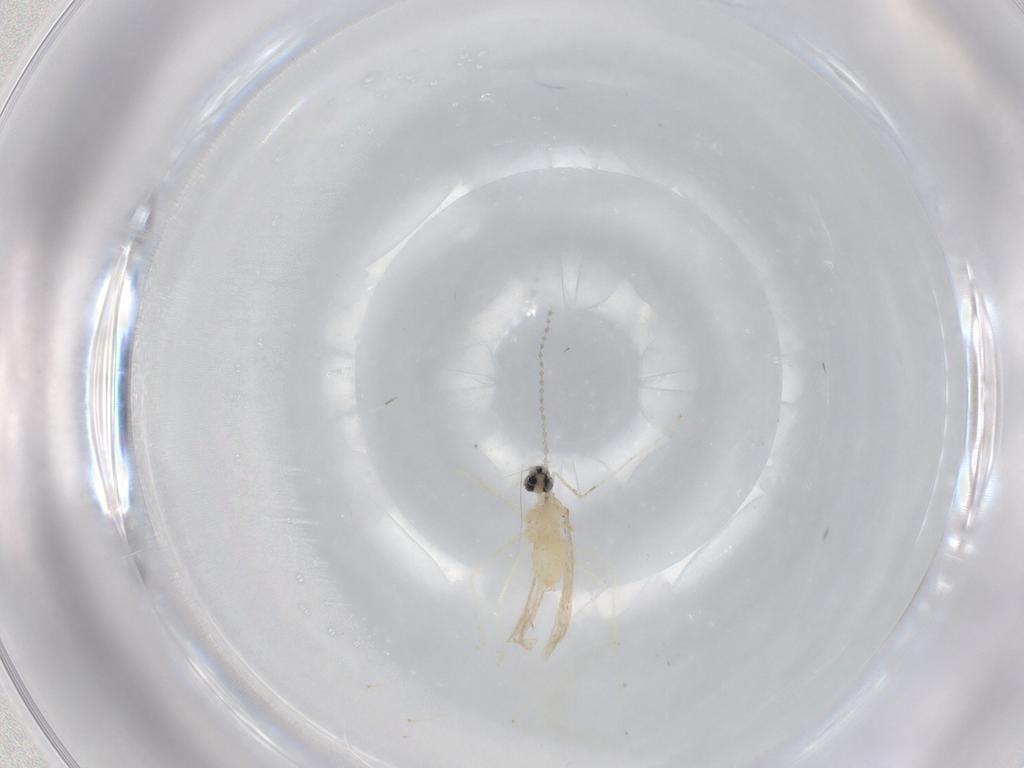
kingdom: Animalia
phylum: Arthropoda
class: Insecta
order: Diptera
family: Cecidomyiidae
